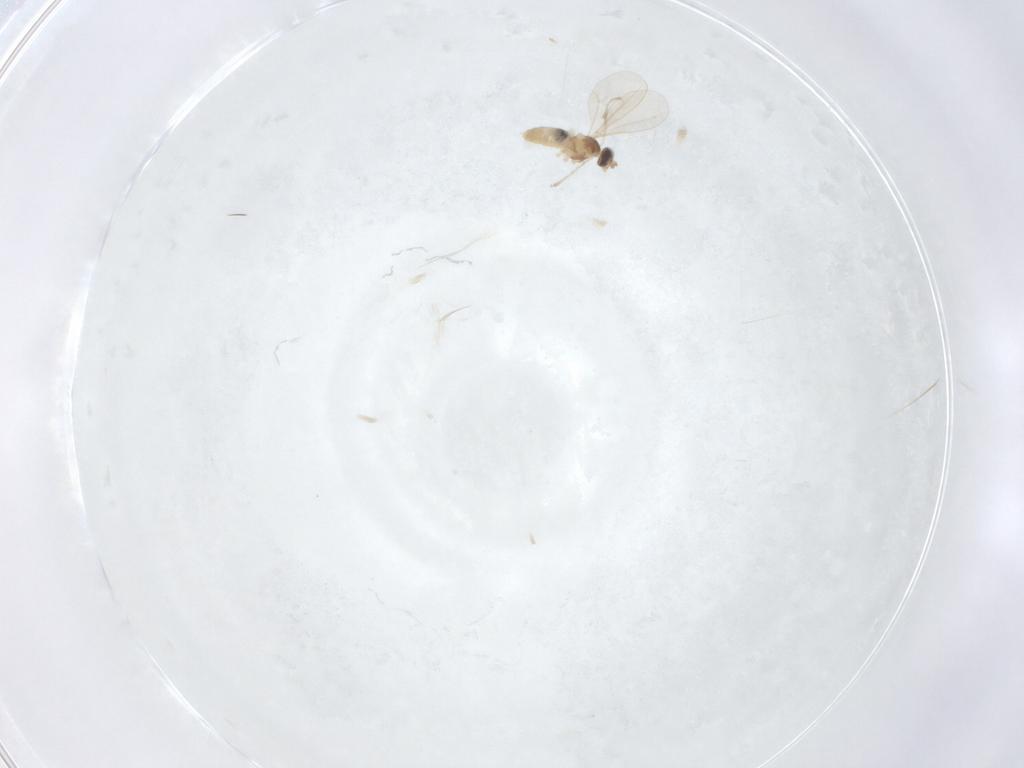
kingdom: Animalia
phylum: Arthropoda
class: Insecta
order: Diptera
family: Cecidomyiidae
